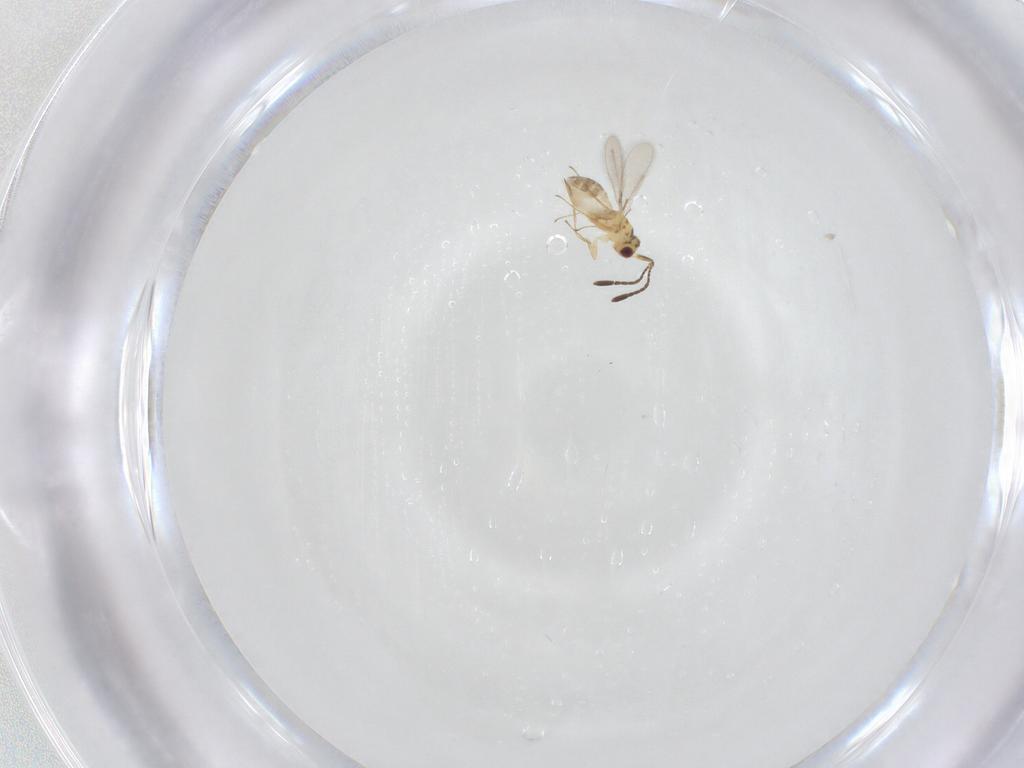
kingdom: Animalia
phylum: Arthropoda
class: Insecta
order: Hymenoptera
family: Mymaridae
